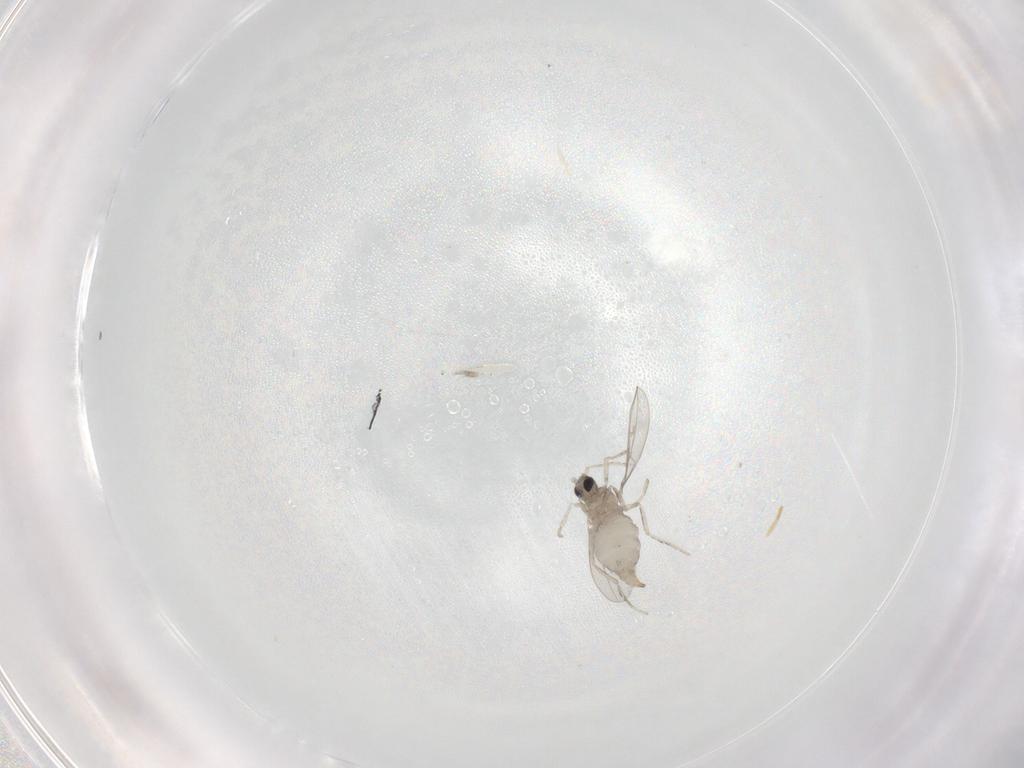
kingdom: Animalia
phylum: Arthropoda
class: Insecta
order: Diptera
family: Cecidomyiidae
